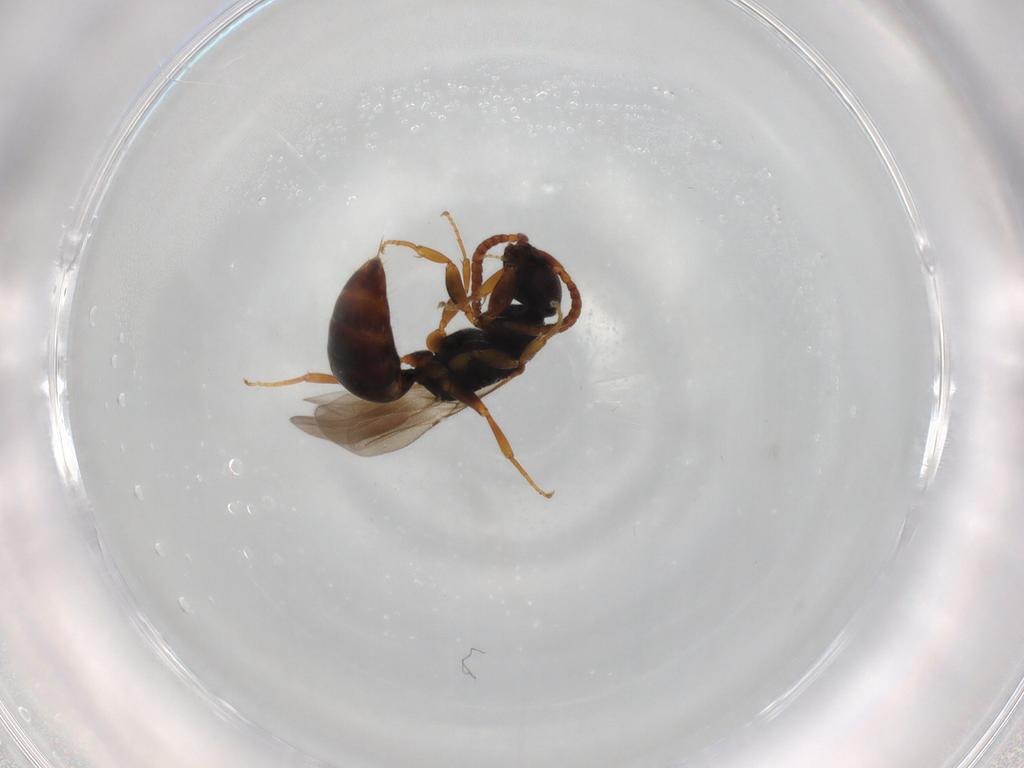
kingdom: Animalia
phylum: Arthropoda
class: Insecta
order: Hymenoptera
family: Bethylidae
